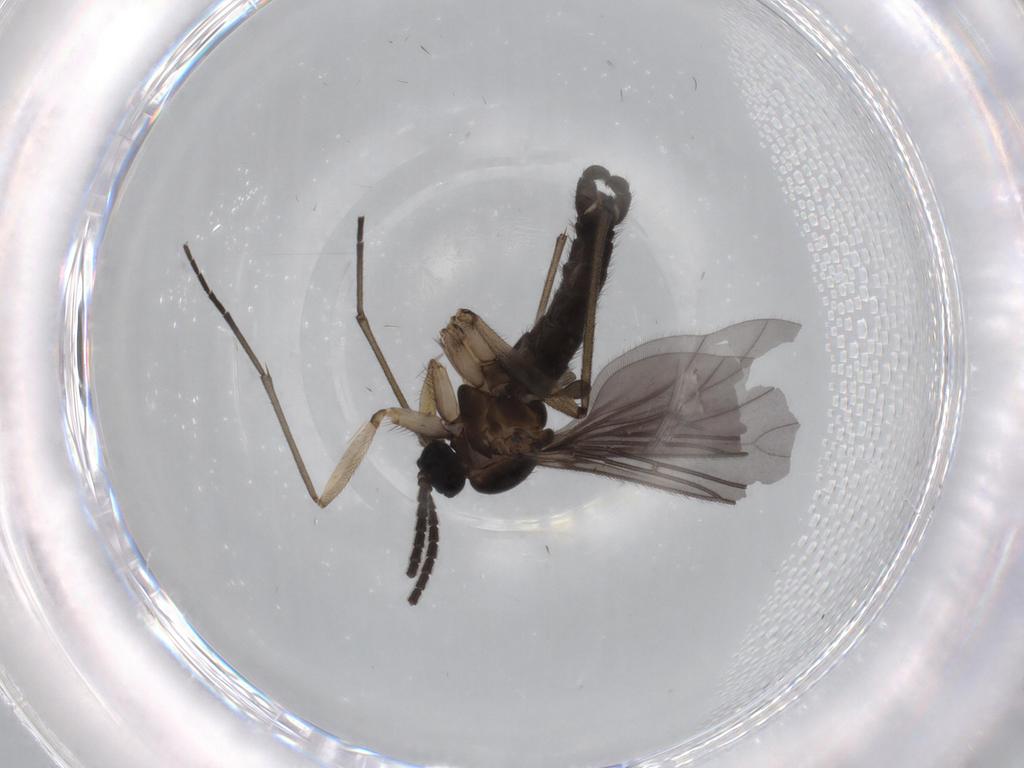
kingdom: Animalia
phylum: Arthropoda
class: Insecta
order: Diptera
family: Sciaridae
